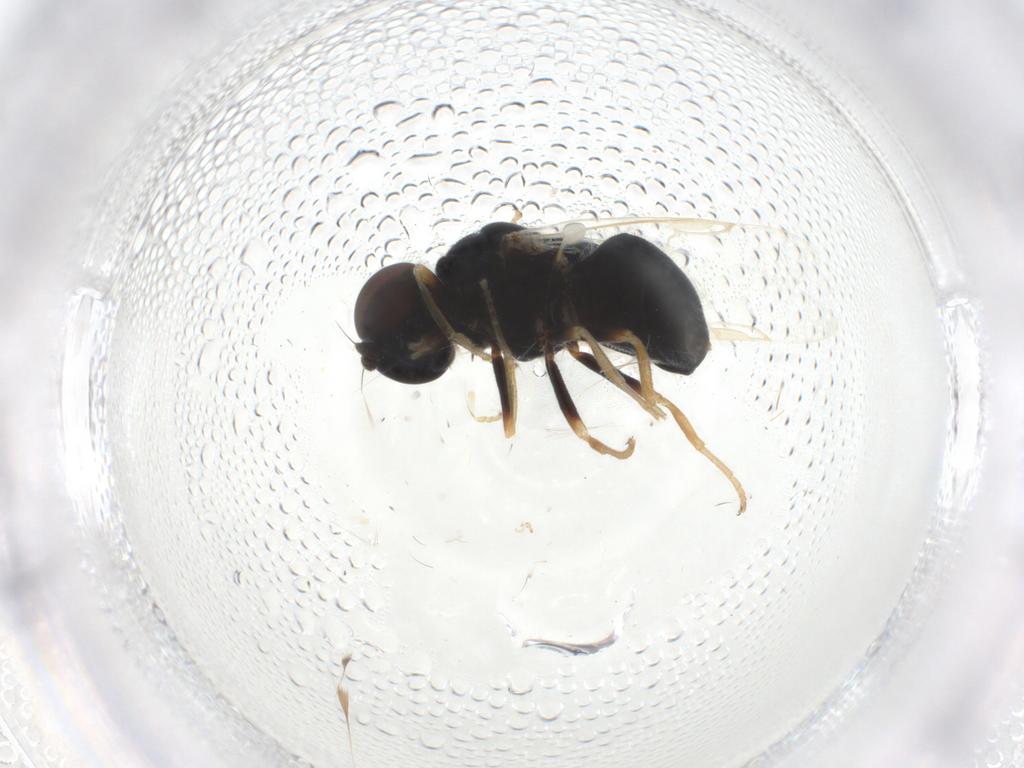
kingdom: Animalia
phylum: Arthropoda
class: Insecta
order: Diptera
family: Stratiomyidae
